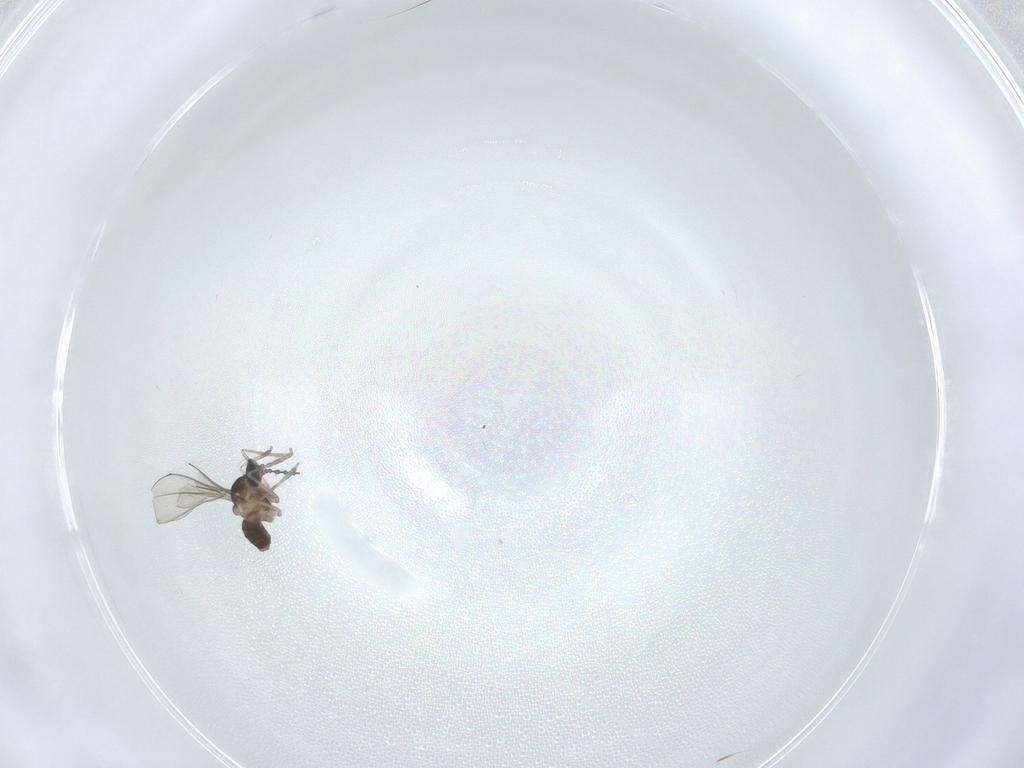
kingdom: Animalia
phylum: Arthropoda
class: Insecta
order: Diptera
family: Cecidomyiidae
